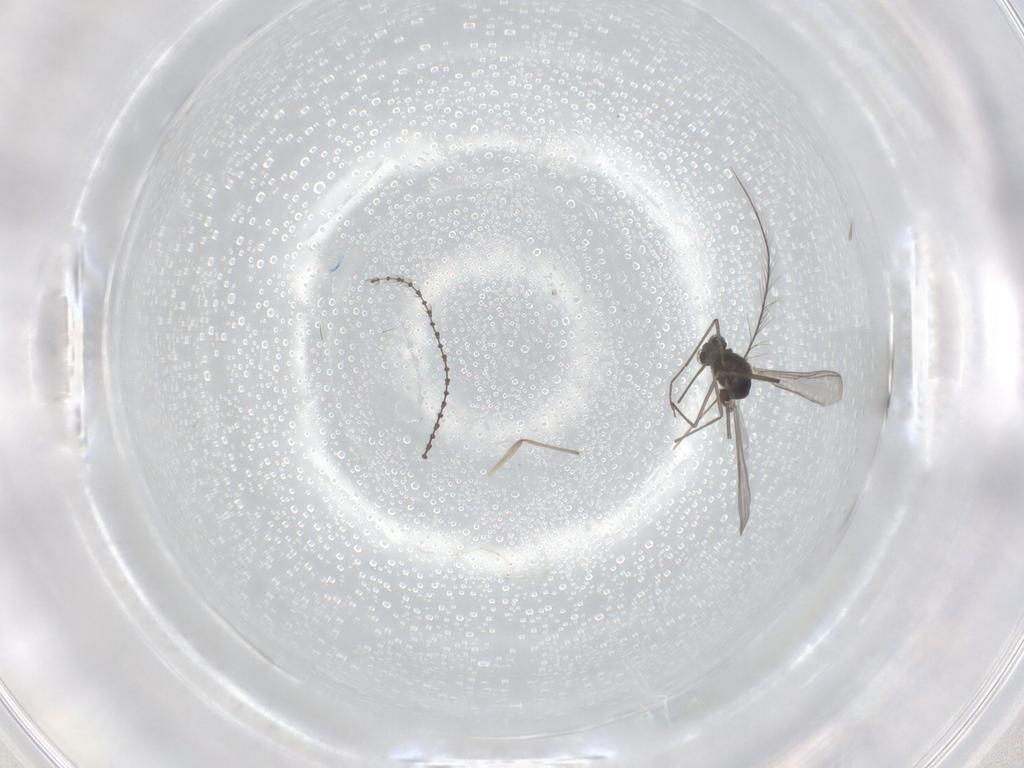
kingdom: Animalia
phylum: Arthropoda
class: Insecta
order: Diptera
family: Chironomidae
